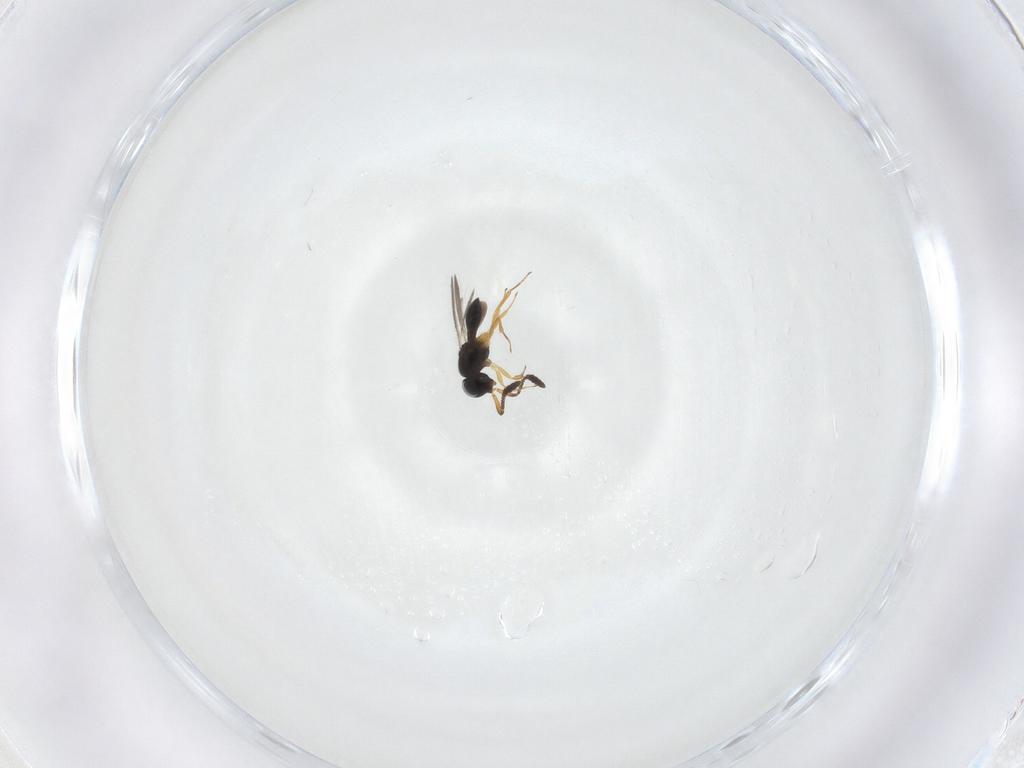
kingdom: Animalia
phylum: Arthropoda
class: Insecta
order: Hymenoptera
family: Scelionidae
